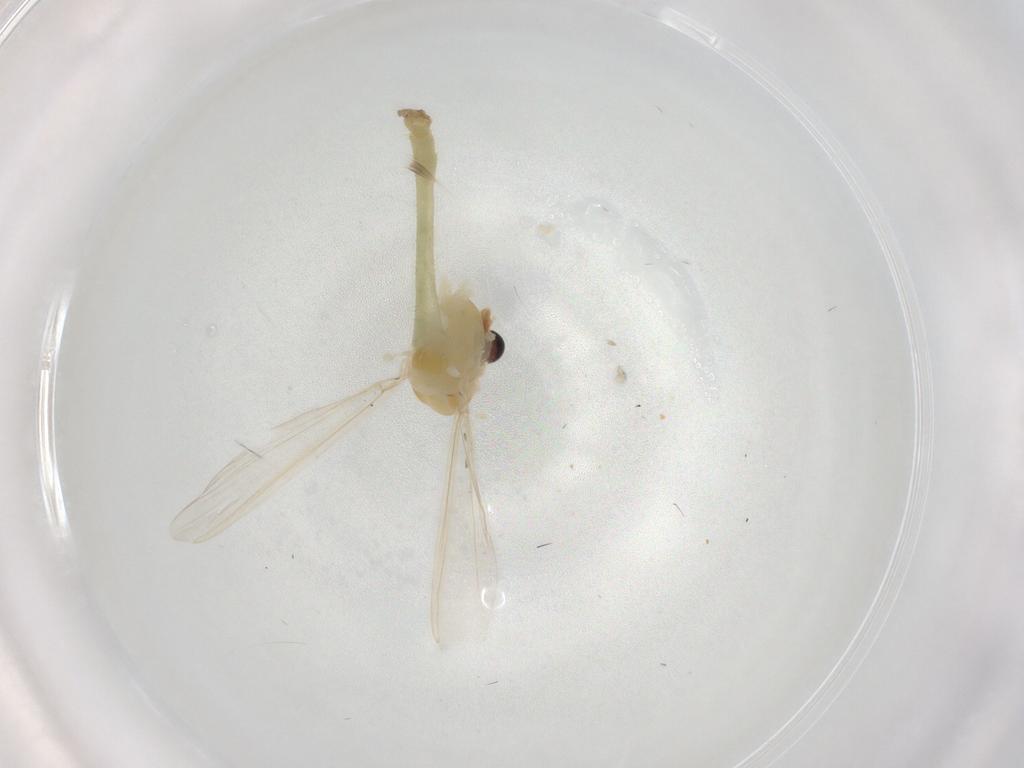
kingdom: Animalia
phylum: Arthropoda
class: Insecta
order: Diptera
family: Chironomidae
